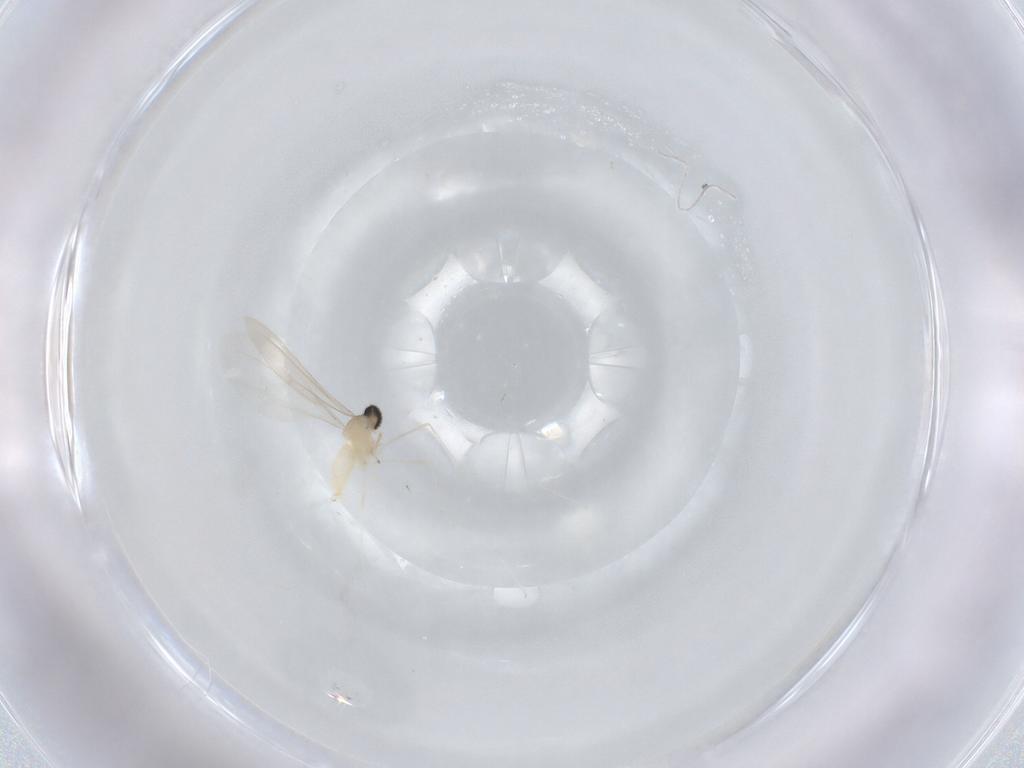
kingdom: Animalia
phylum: Arthropoda
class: Insecta
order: Diptera
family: Cecidomyiidae
